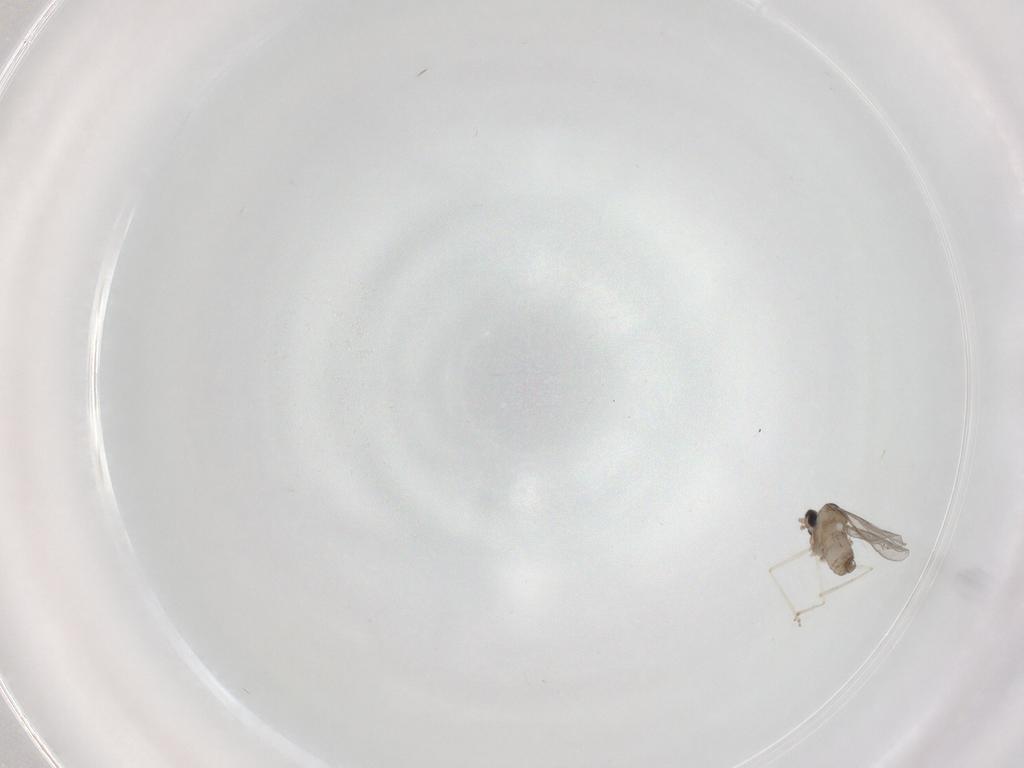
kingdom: Animalia
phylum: Arthropoda
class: Insecta
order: Diptera
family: Cecidomyiidae
